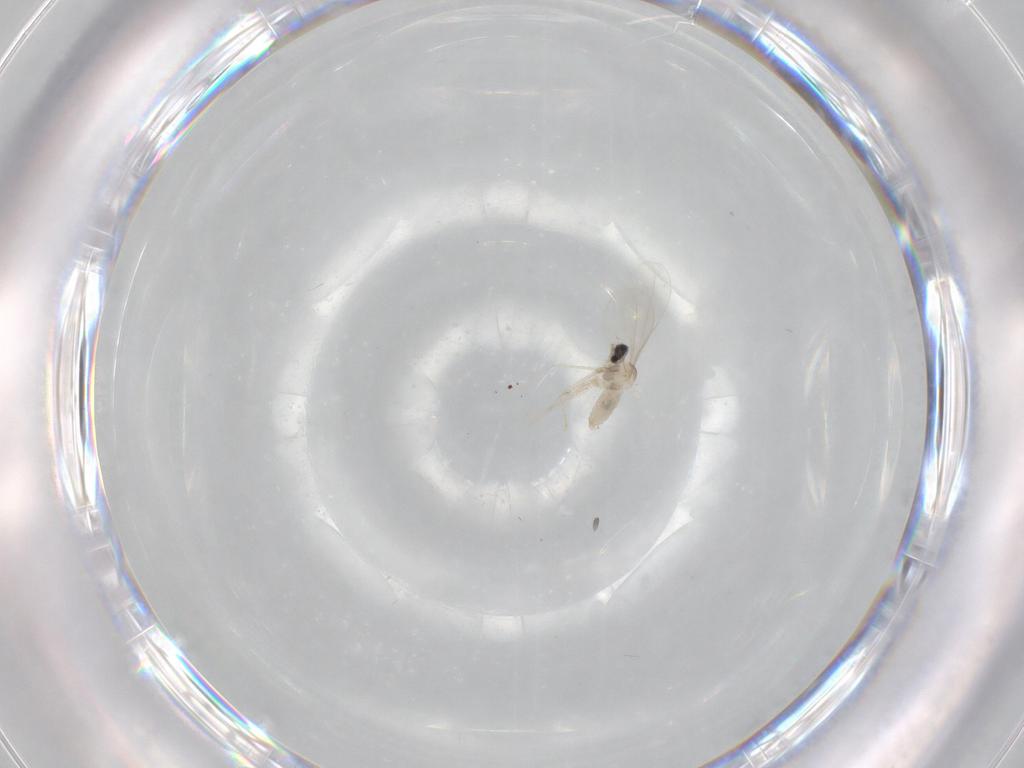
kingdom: Animalia
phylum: Arthropoda
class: Insecta
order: Diptera
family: Cecidomyiidae
